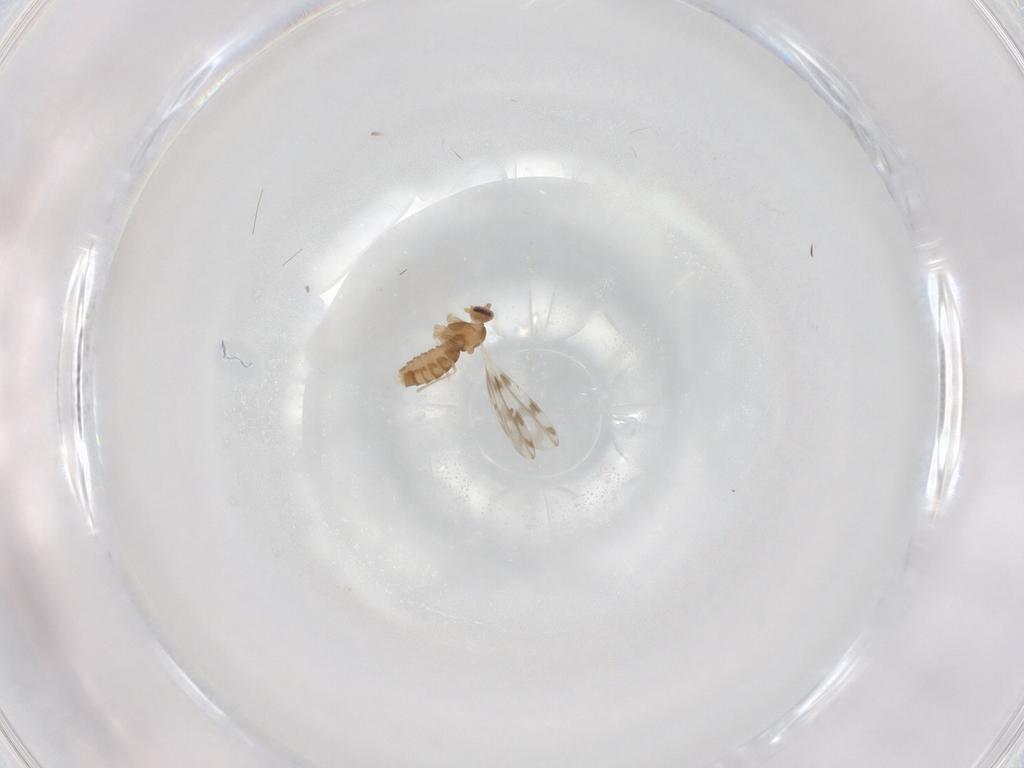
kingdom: Animalia
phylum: Arthropoda
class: Insecta
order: Diptera
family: Cecidomyiidae
